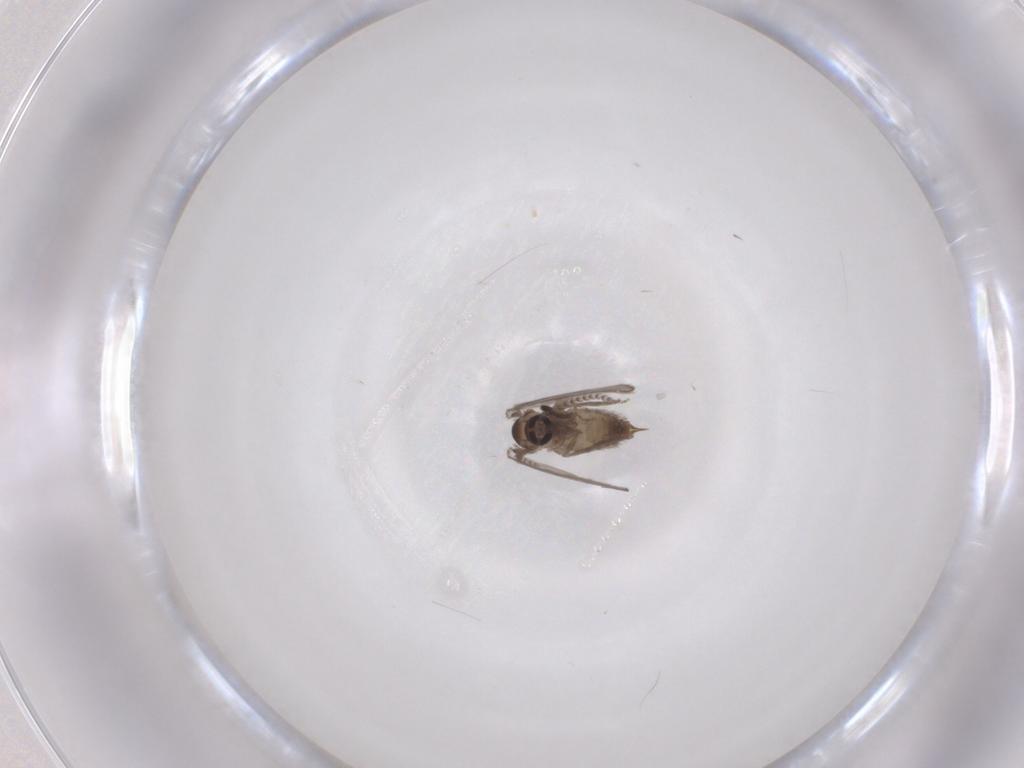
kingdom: Animalia
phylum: Arthropoda
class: Insecta
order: Diptera
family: Psychodidae
